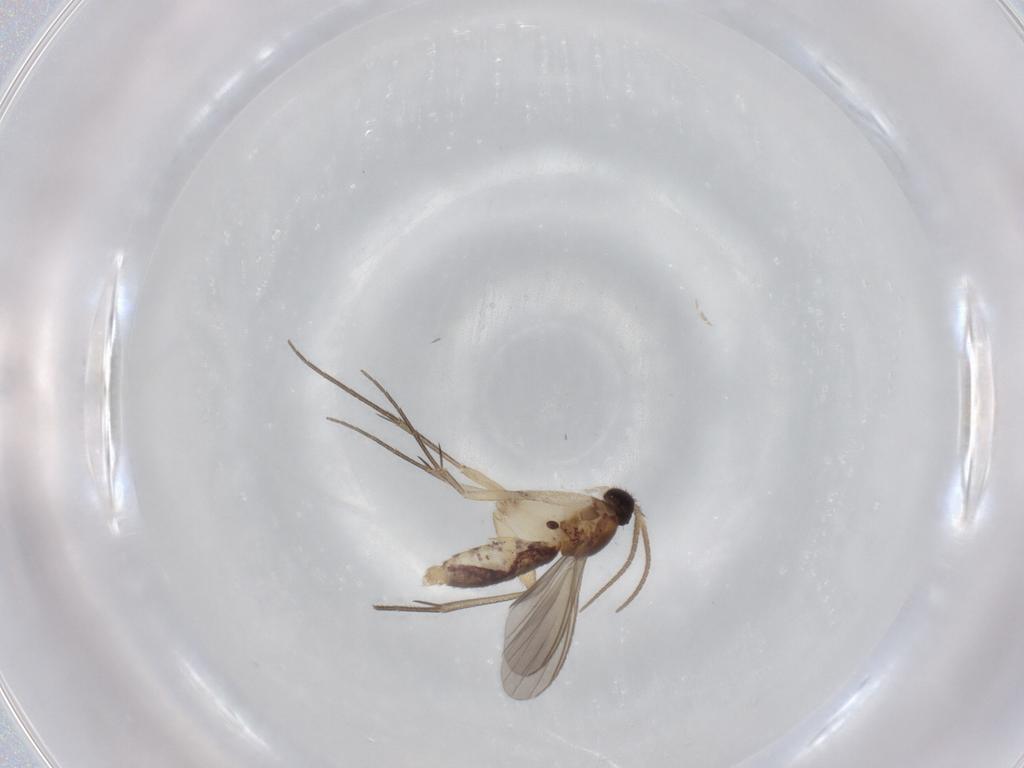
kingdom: Animalia
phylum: Arthropoda
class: Insecta
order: Diptera
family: Mycetophilidae
